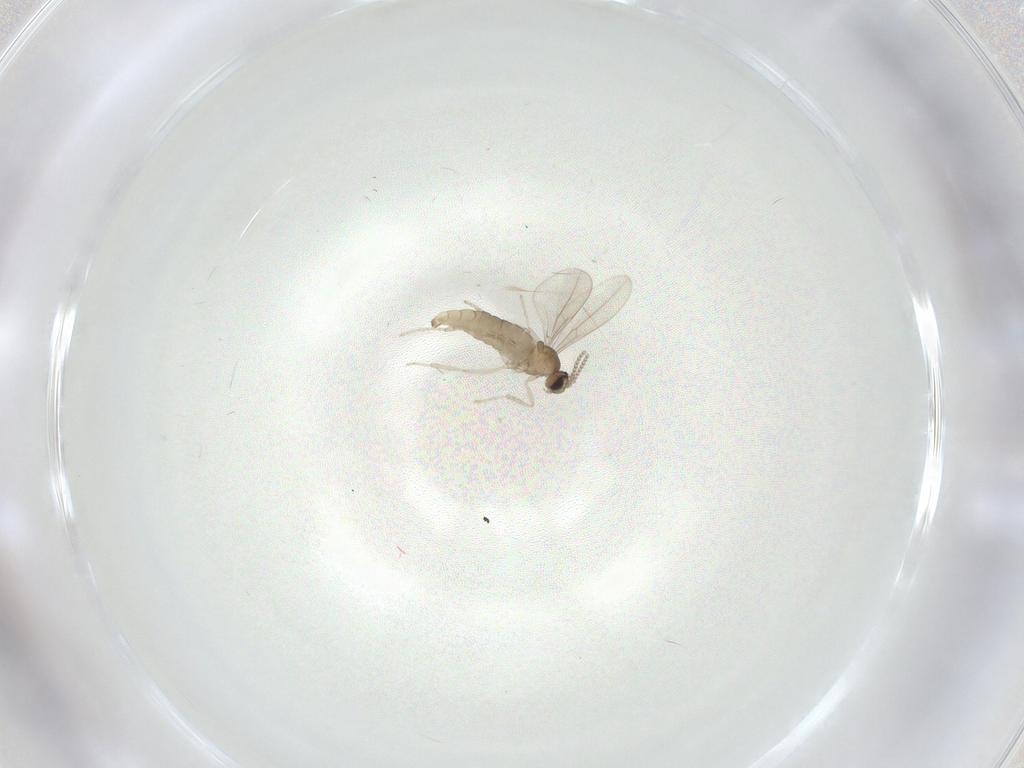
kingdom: Animalia
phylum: Arthropoda
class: Insecta
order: Diptera
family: Cecidomyiidae
